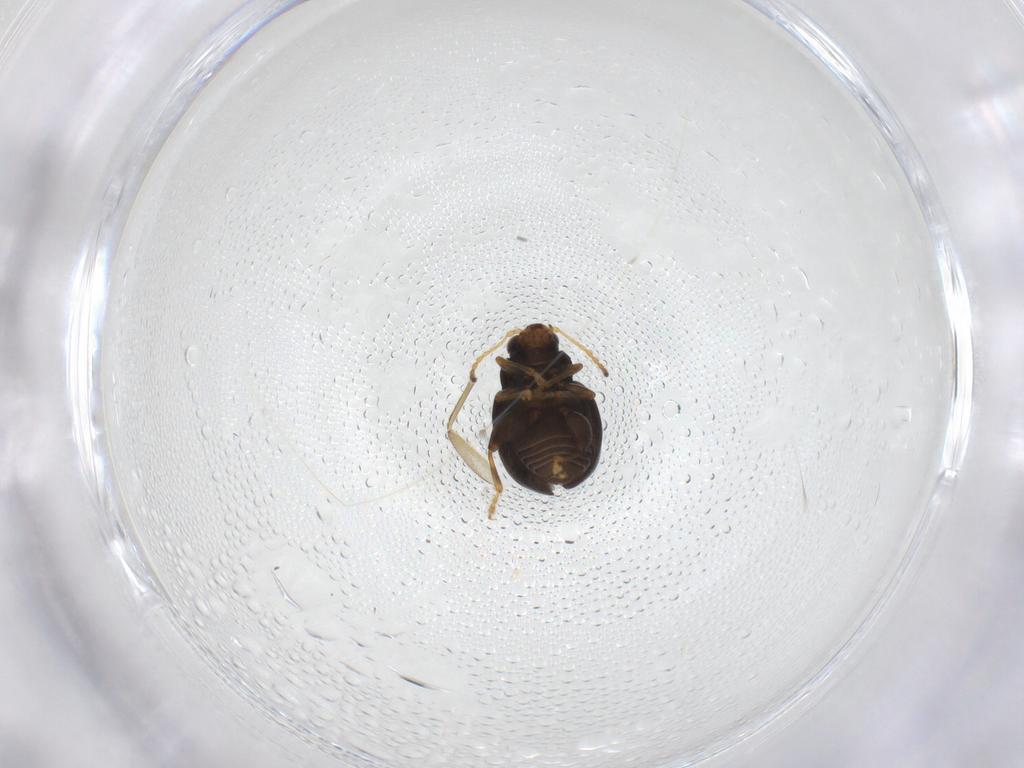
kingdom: Animalia
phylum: Arthropoda
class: Insecta
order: Coleoptera
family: Chrysomelidae
